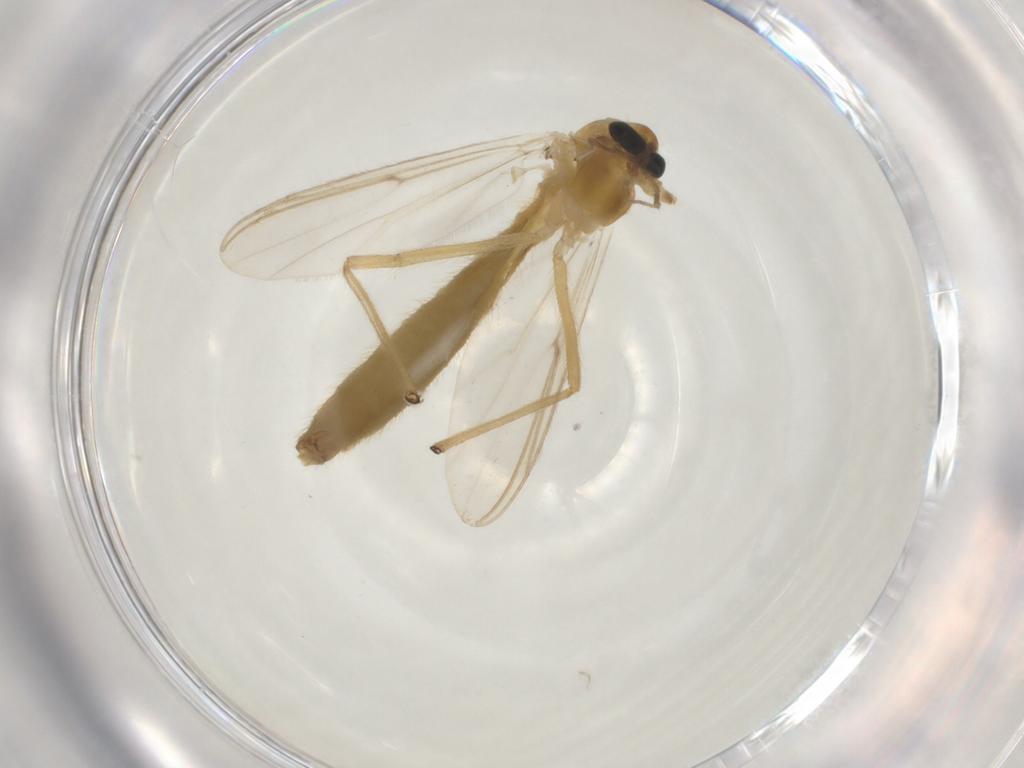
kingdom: Animalia
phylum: Arthropoda
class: Insecta
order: Diptera
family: Chironomidae
